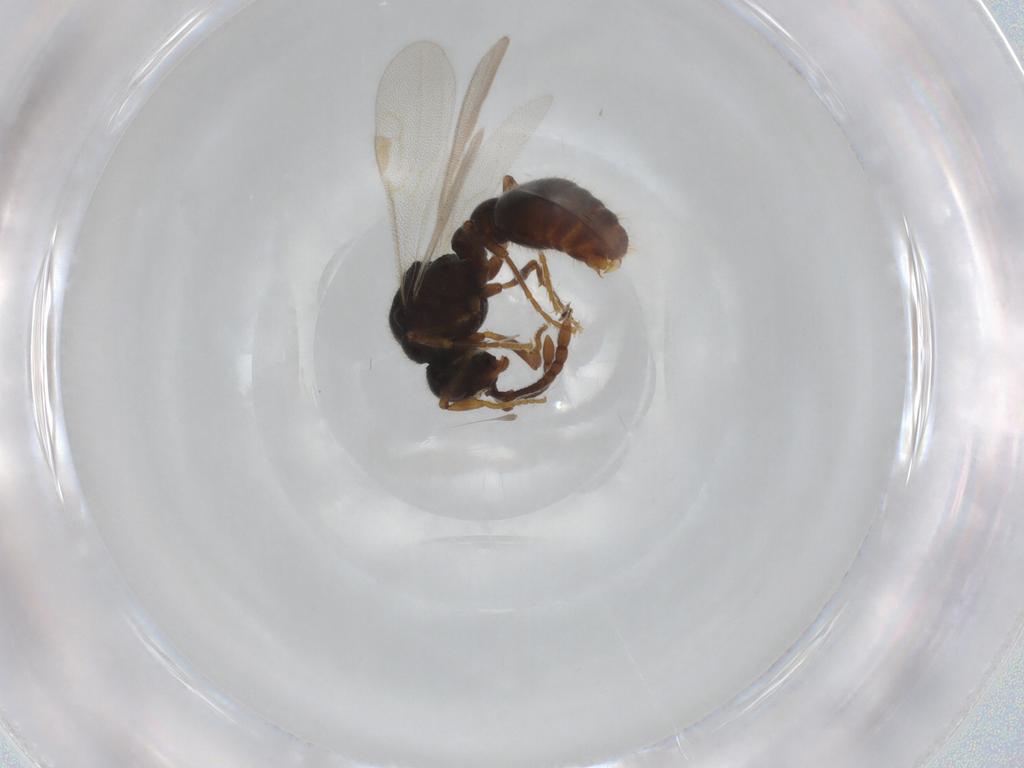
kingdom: Animalia
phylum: Arthropoda
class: Insecta
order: Hymenoptera
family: Formicidae
